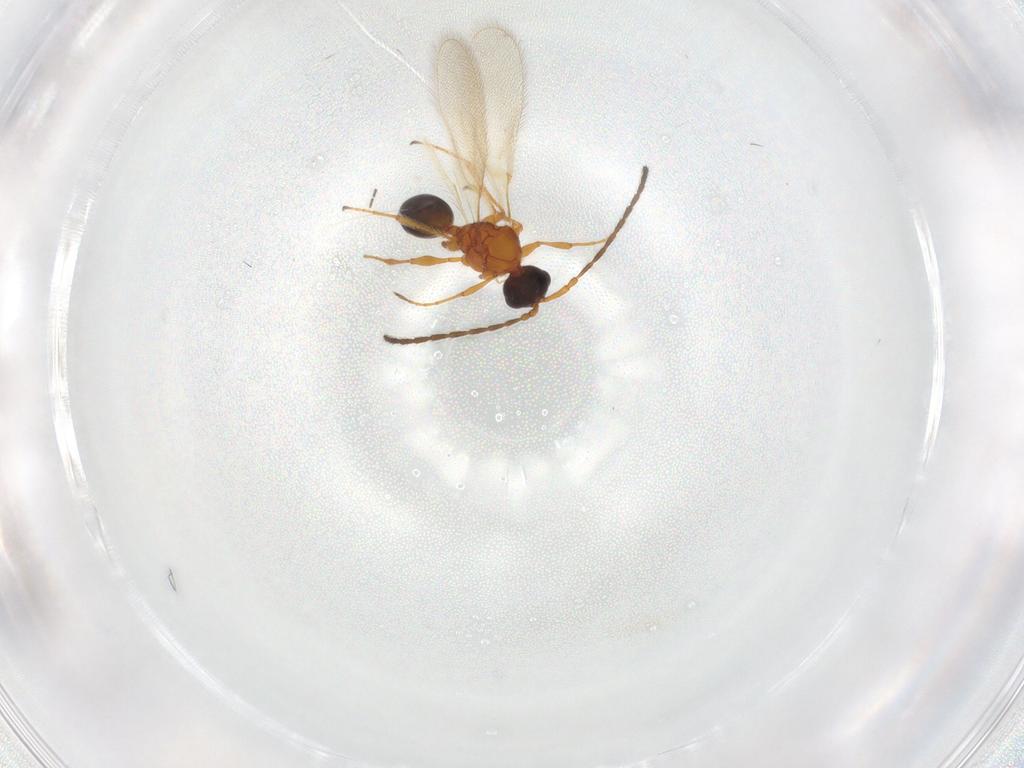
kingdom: Animalia
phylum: Arthropoda
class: Insecta
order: Hymenoptera
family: Diapriidae
